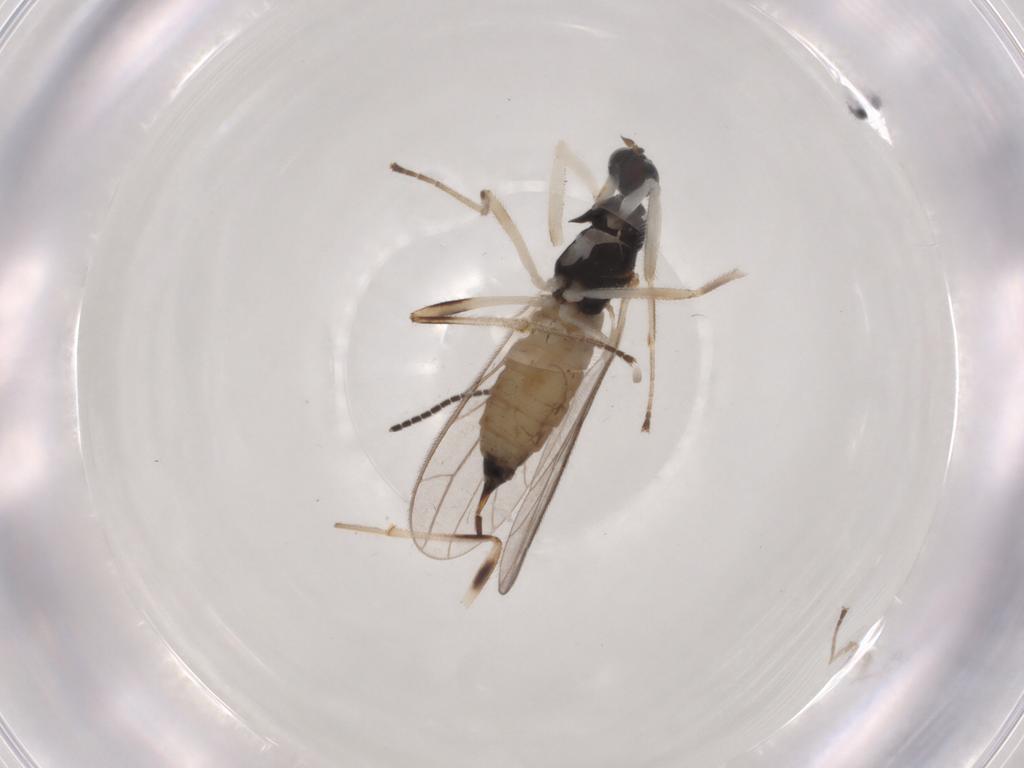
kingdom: Animalia
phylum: Arthropoda
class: Insecta
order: Diptera
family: Empididae
